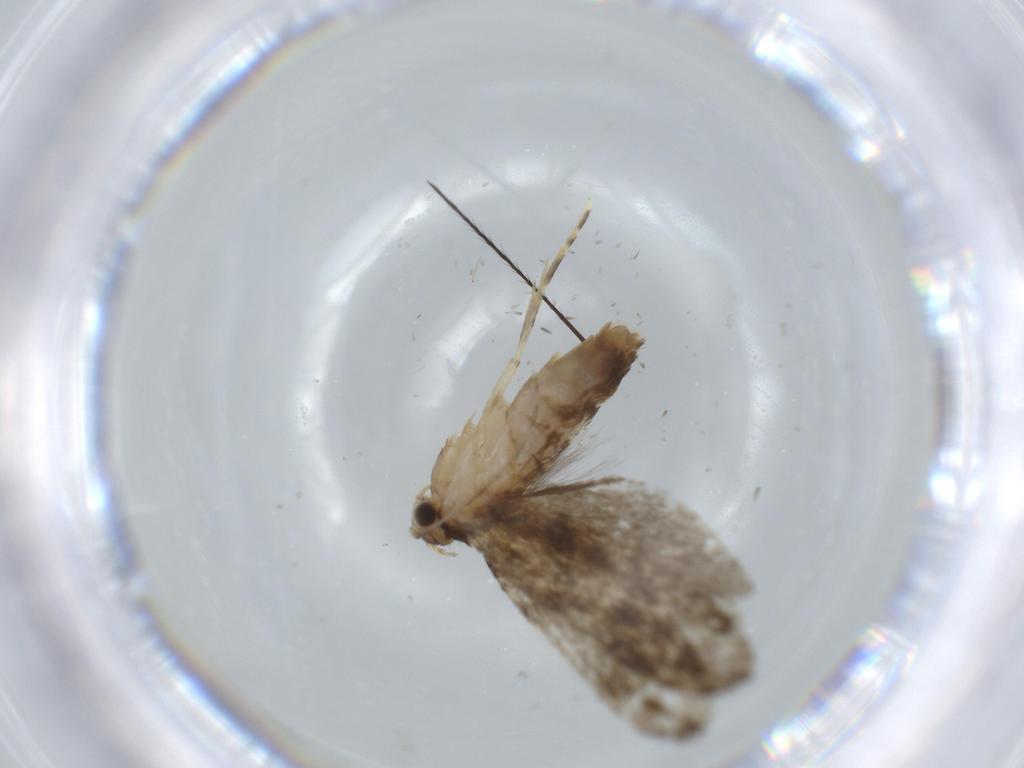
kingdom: Animalia
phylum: Arthropoda
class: Insecta
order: Lepidoptera
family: Tineidae
